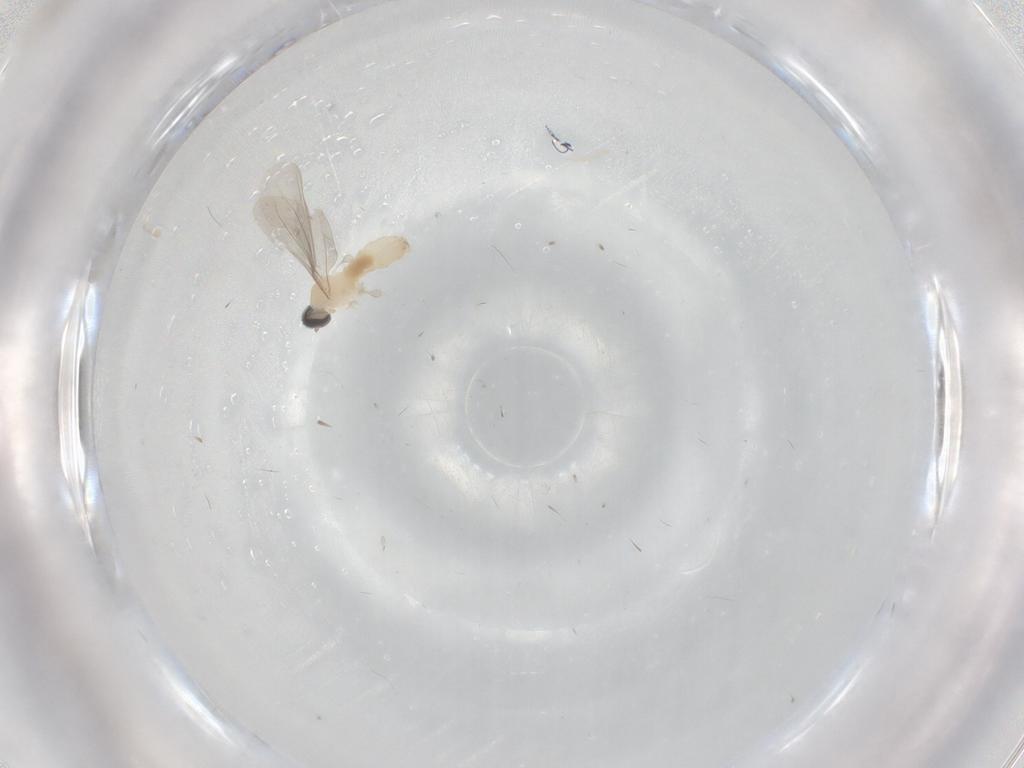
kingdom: Animalia
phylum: Arthropoda
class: Insecta
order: Diptera
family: Cecidomyiidae
